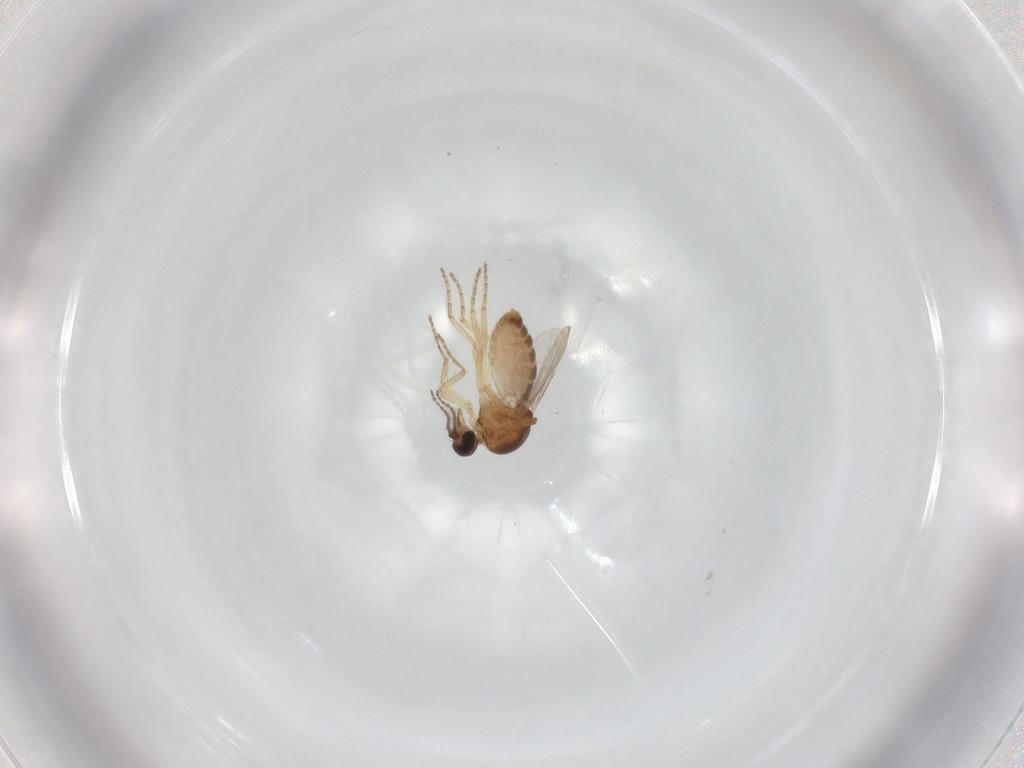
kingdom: Animalia
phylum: Arthropoda
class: Insecta
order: Diptera
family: Ceratopogonidae
